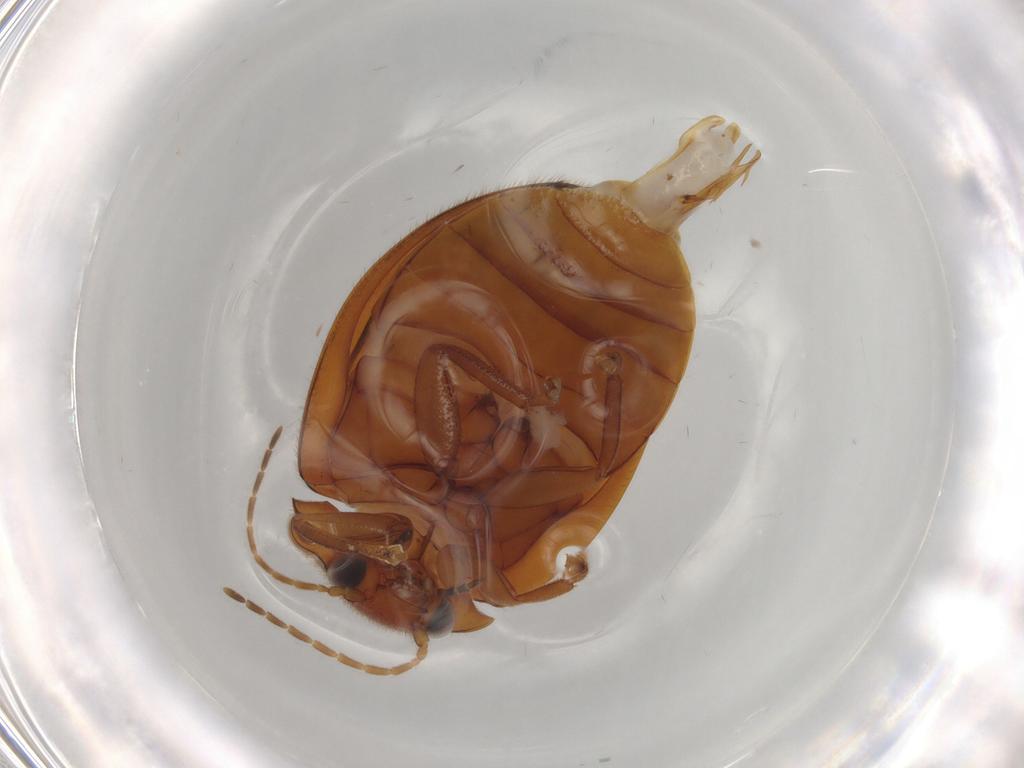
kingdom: Animalia
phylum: Arthropoda
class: Insecta
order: Coleoptera
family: Scirtidae
